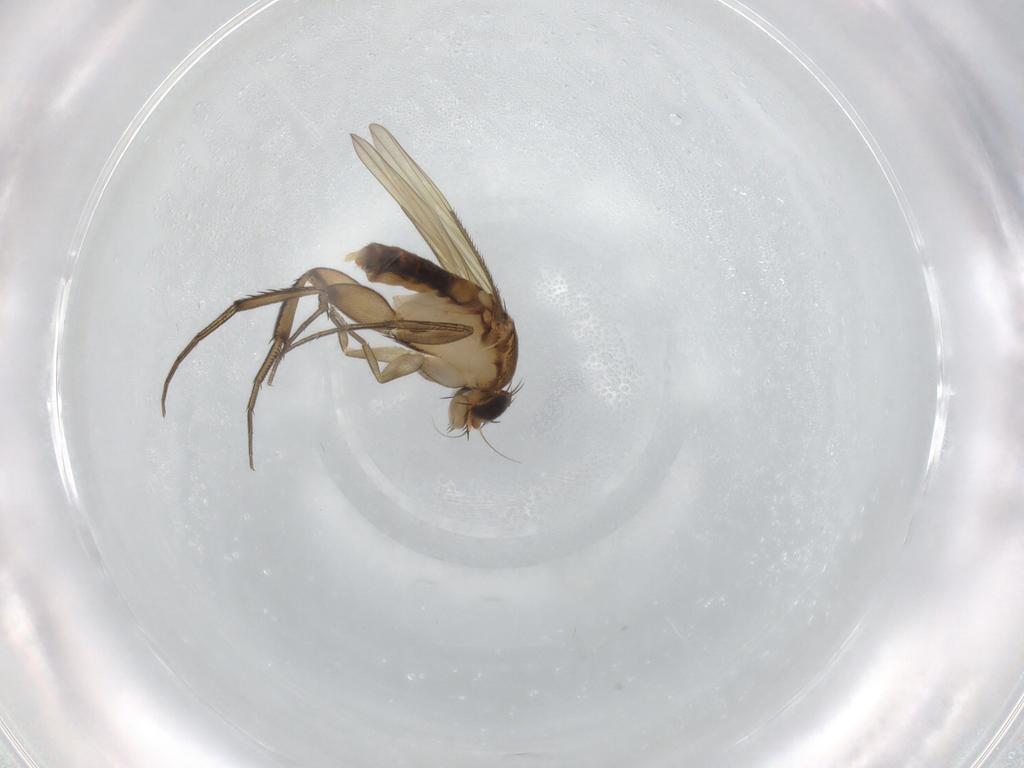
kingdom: Animalia
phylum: Arthropoda
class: Insecta
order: Diptera
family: Phoridae
